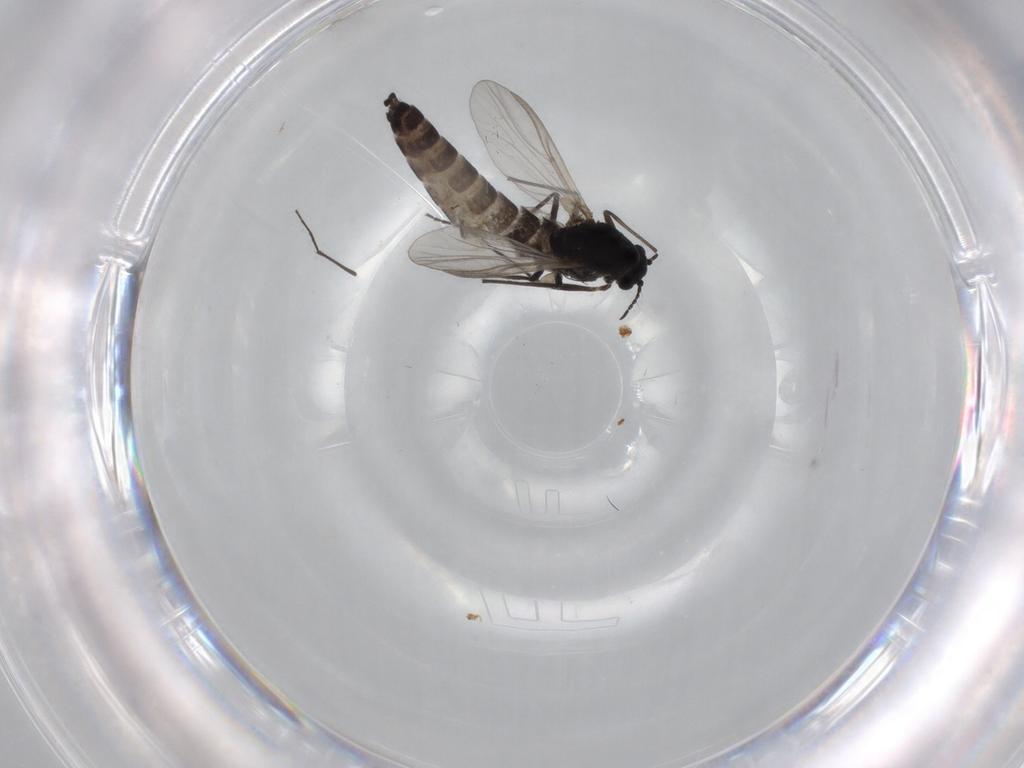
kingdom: Animalia
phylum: Arthropoda
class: Insecta
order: Diptera
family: Chironomidae
